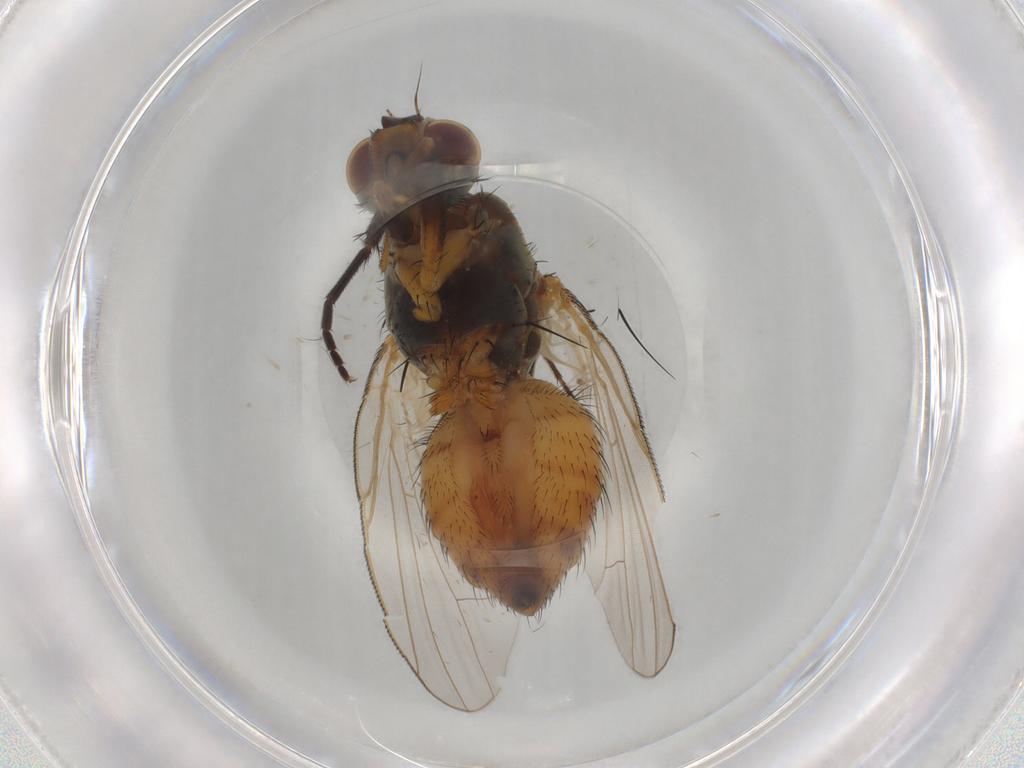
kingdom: Animalia
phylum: Arthropoda
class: Insecta
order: Diptera
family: Muscidae
